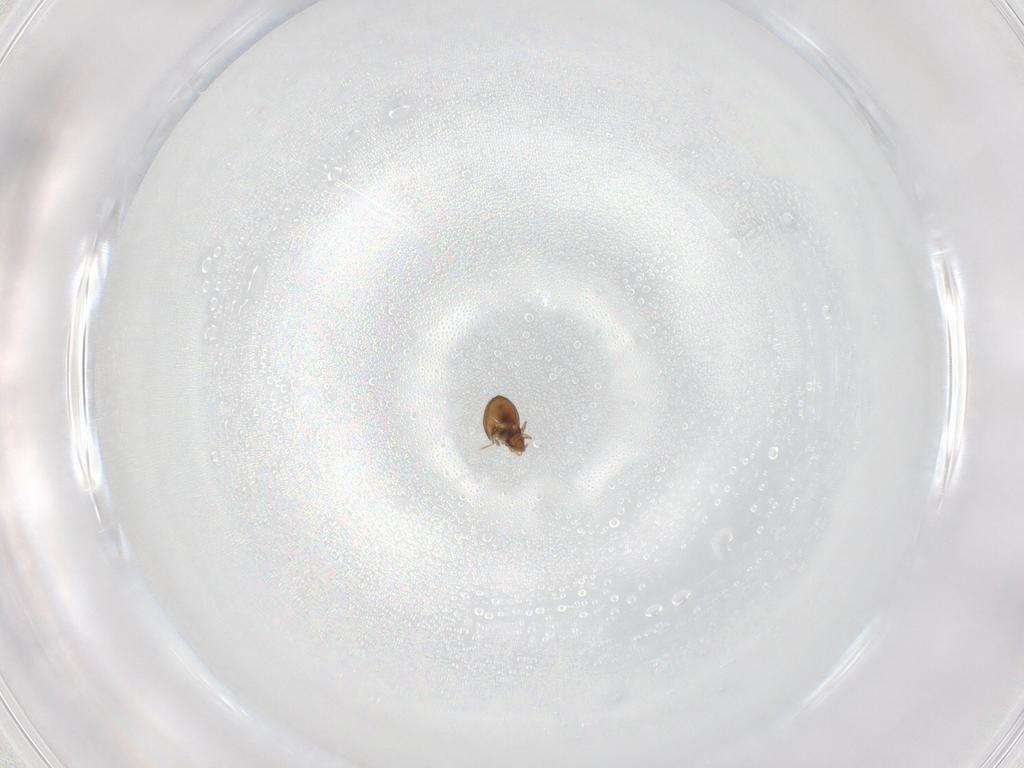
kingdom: Animalia
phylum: Arthropoda
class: Arachnida
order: Sarcoptiformes
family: Oribatulidae
